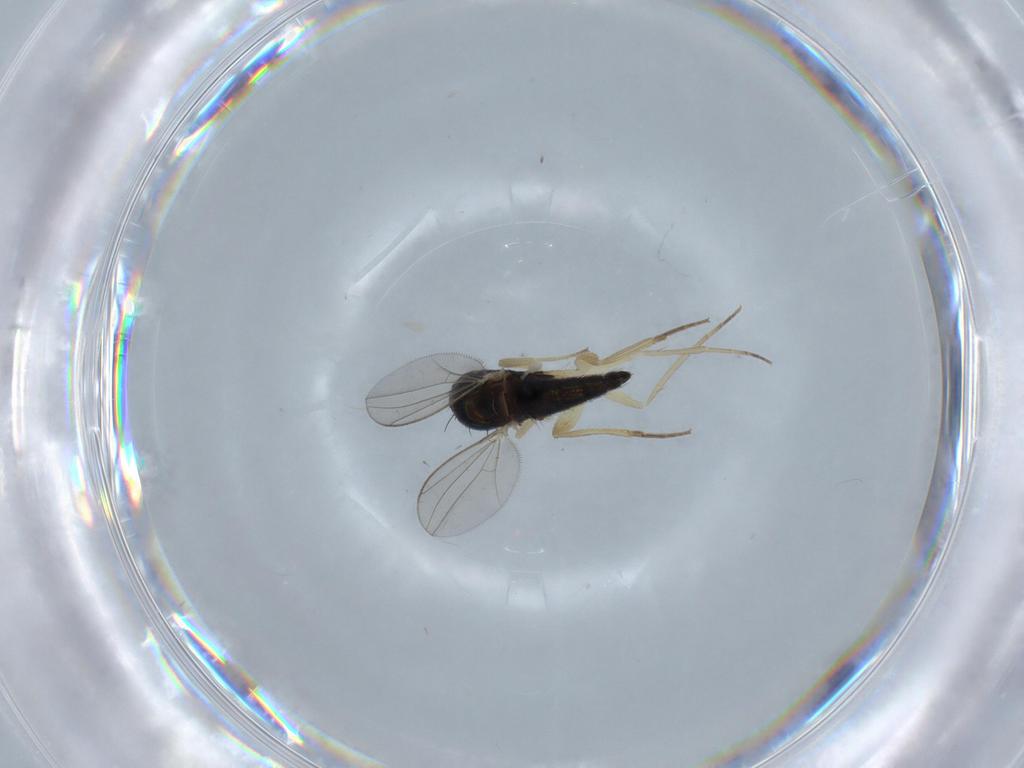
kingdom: Animalia
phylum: Arthropoda
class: Insecta
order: Diptera
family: Dolichopodidae
